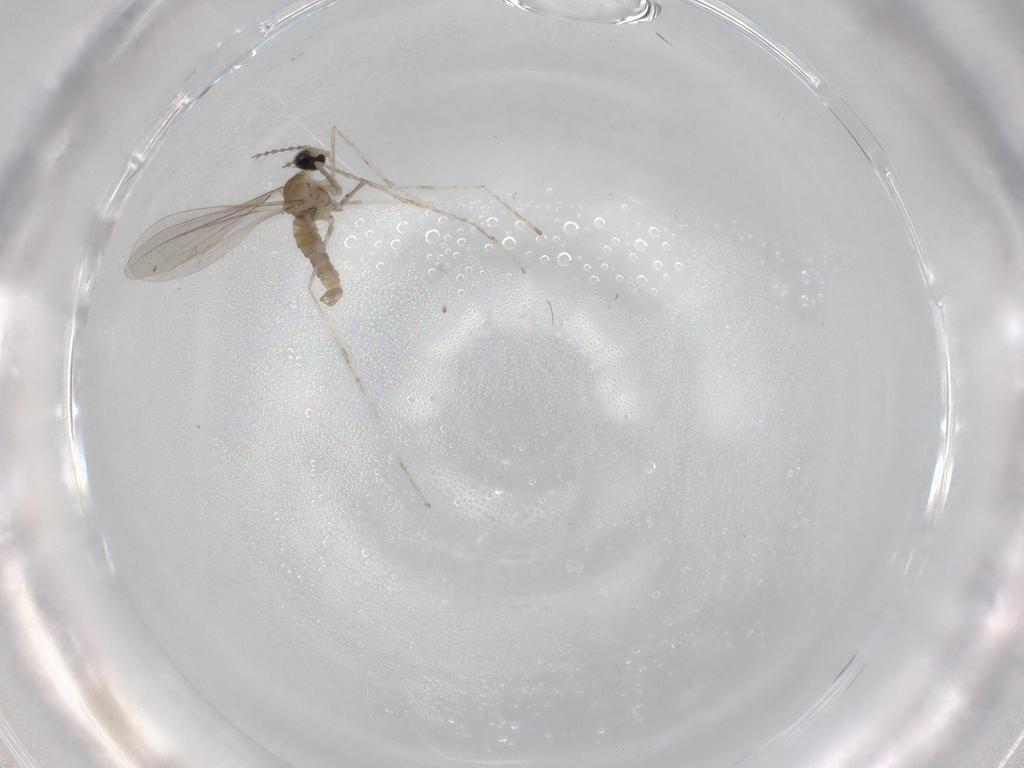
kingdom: Animalia
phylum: Arthropoda
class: Insecta
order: Diptera
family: Cecidomyiidae
